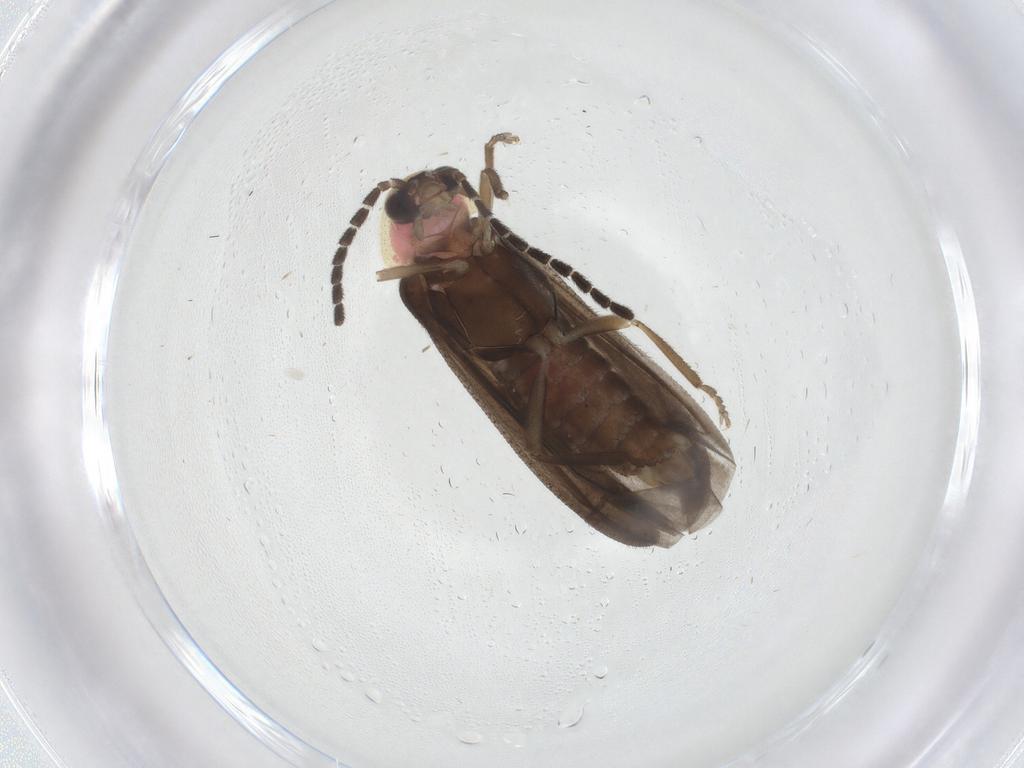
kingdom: Animalia
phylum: Arthropoda
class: Insecta
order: Coleoptera
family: Lampyridae
